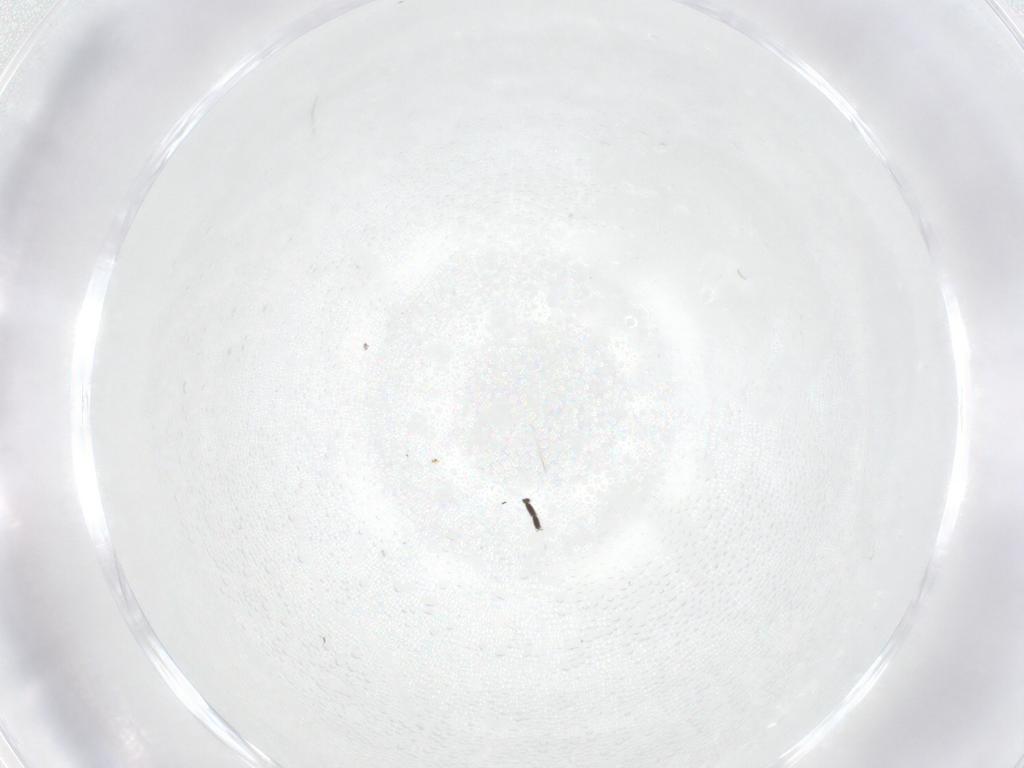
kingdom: Animalia
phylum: Arthropoda
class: Insecta
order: Diptera
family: Sciaridae
